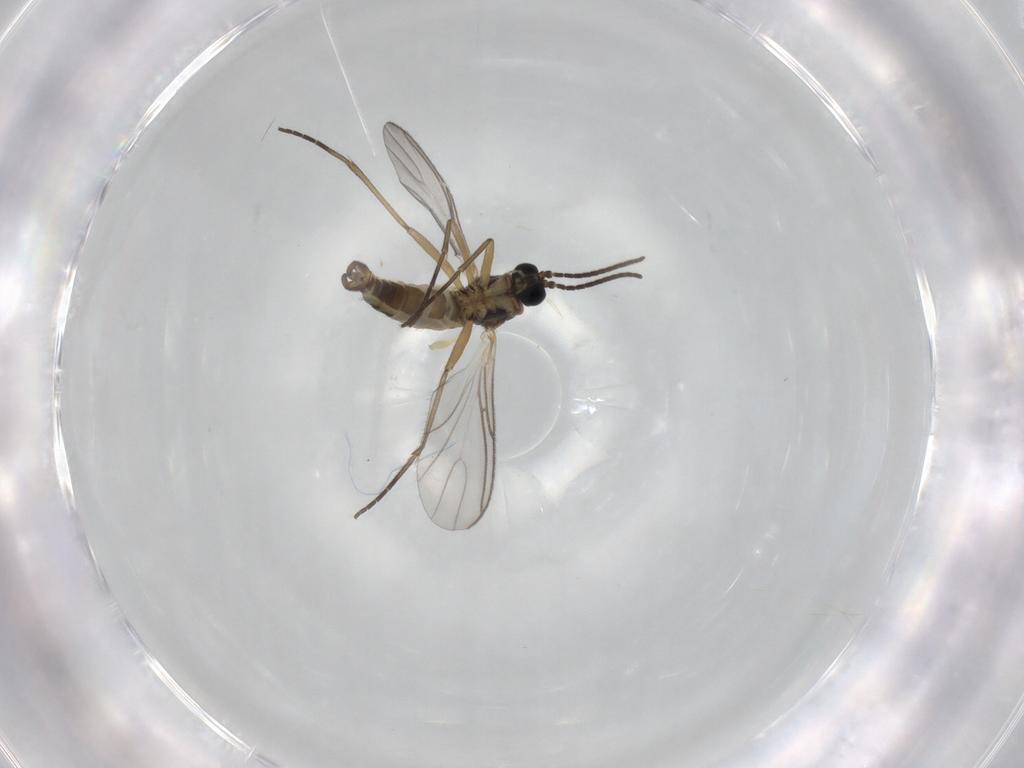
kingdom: Animalia
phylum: Arthropoda
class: Insecta
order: Diptera
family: Sciaridae
